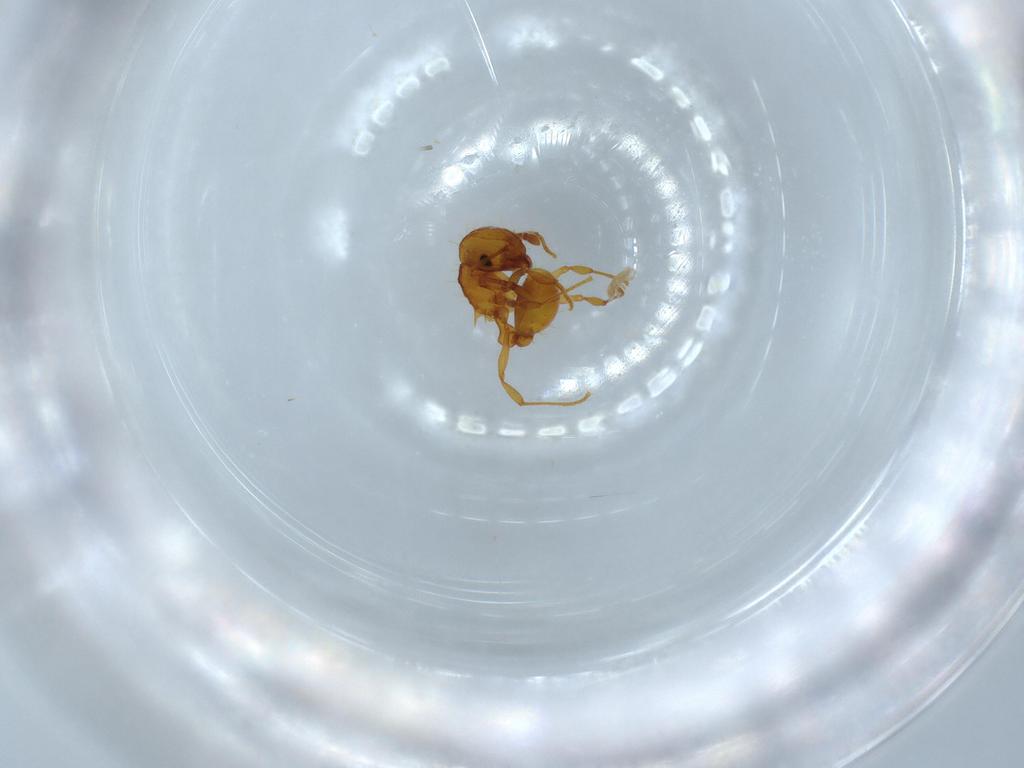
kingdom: Animalia
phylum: Arthropoda
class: Insecta
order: Hymenoptera
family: Formicidae
